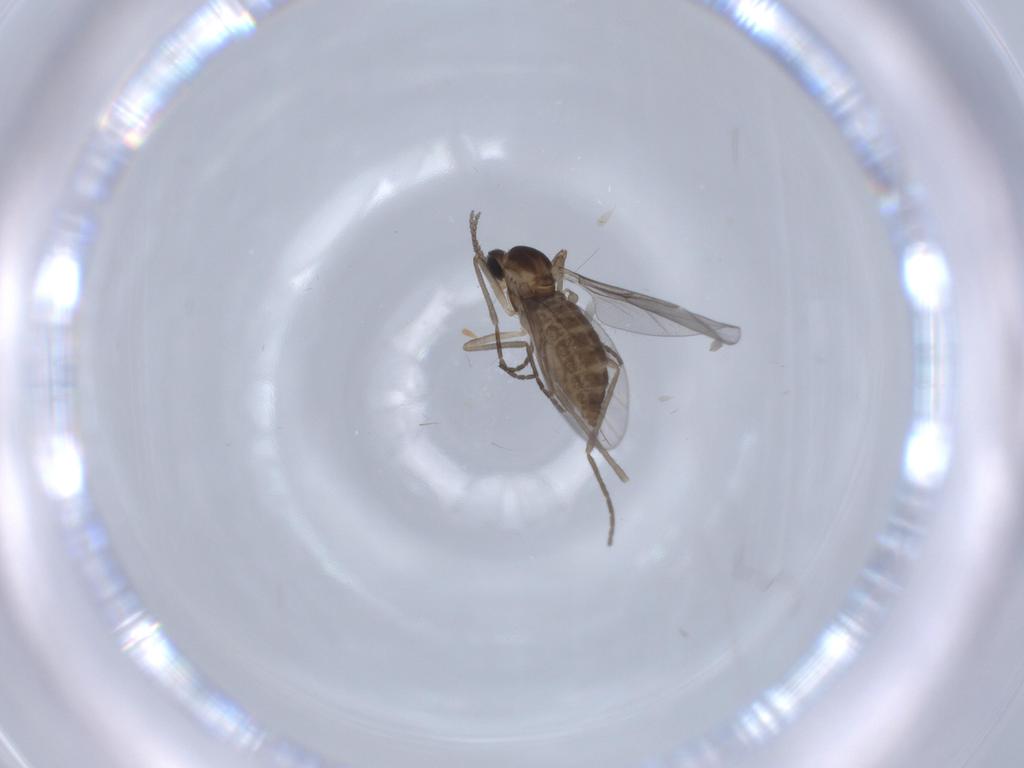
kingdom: Animalia
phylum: Arthropoda
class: Insecta
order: Diptera
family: Cecidomyiidae
